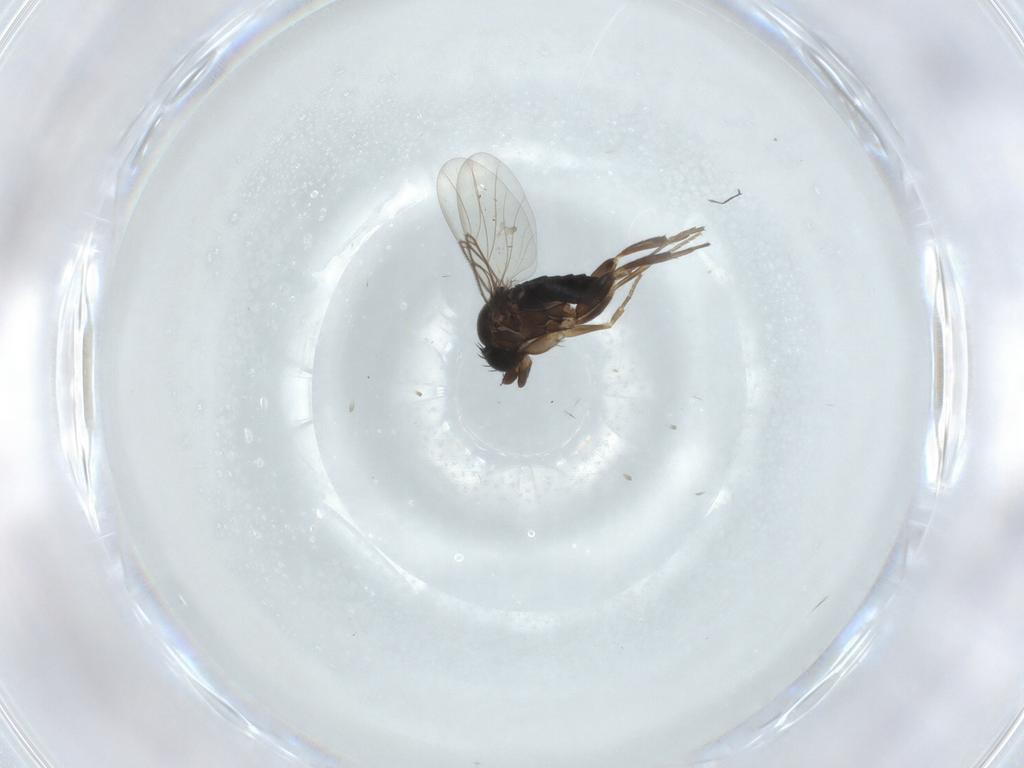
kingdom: Animalia
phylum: Arthropoda
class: Insecta
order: Diptera
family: Phoridae
